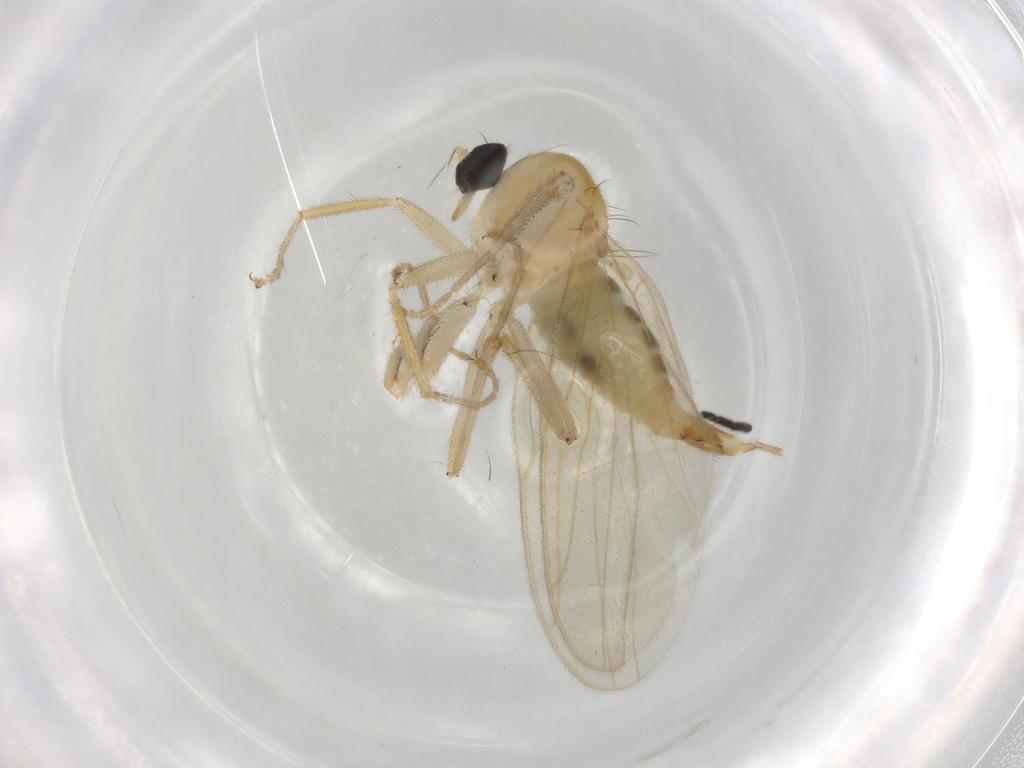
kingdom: Animalia
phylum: Arthropoda
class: Insecta
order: Diptera
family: Hybotidae
